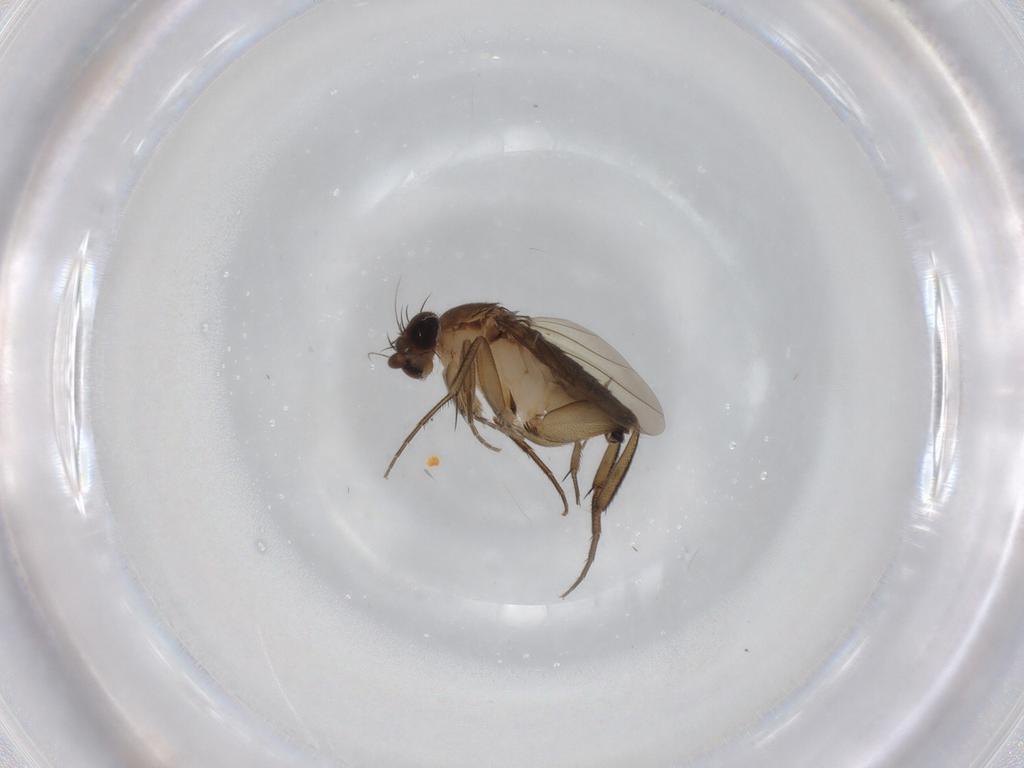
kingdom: Animalia
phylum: Arthropoda
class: Insecta
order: Diptera
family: Phoridae
